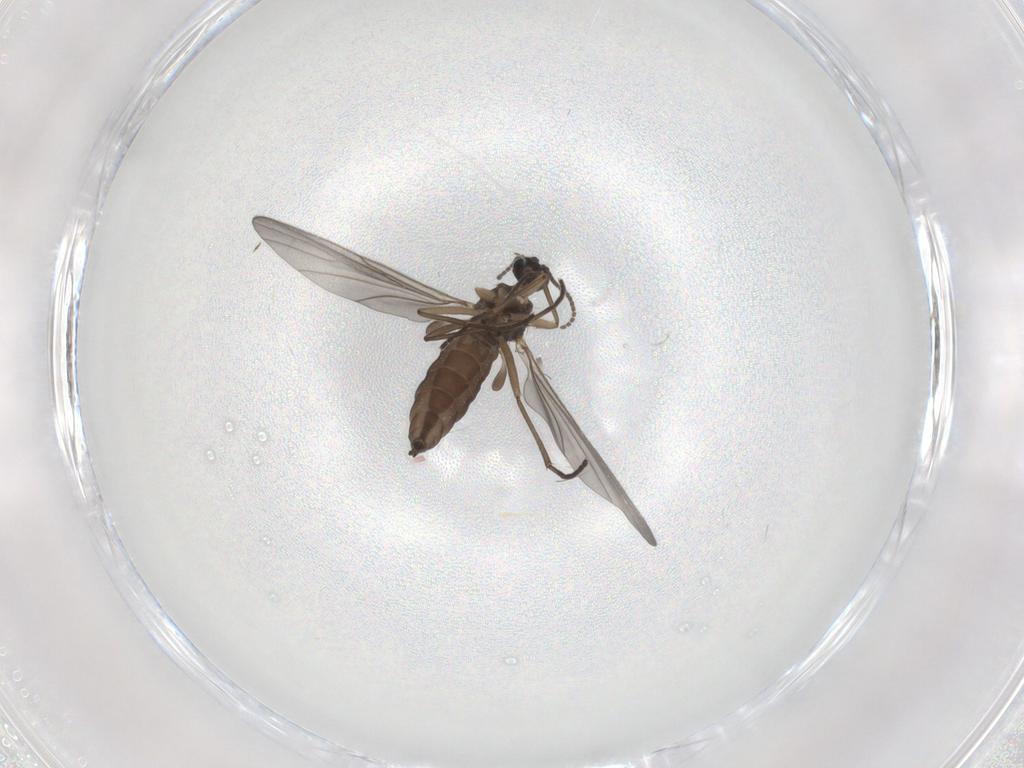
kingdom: Animalia
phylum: Arthropoda
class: Insecta
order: Diptera
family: Sciaridae
